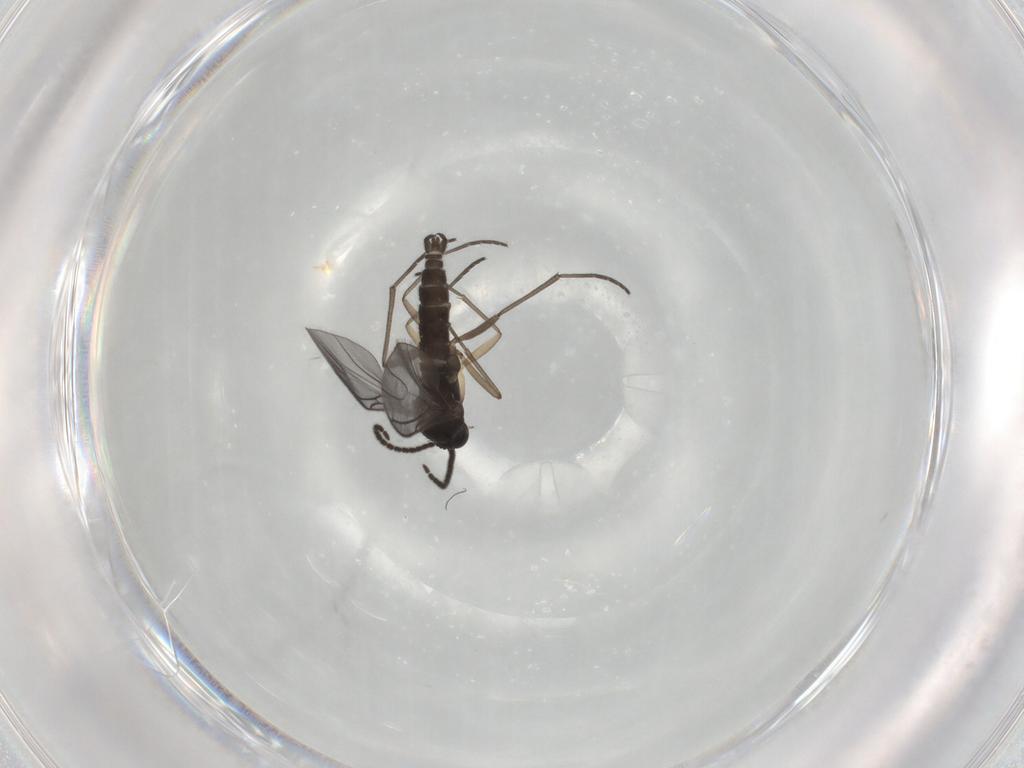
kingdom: Animalia
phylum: Arthropoda
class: Insecta
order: Diptera
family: Sciaridae
